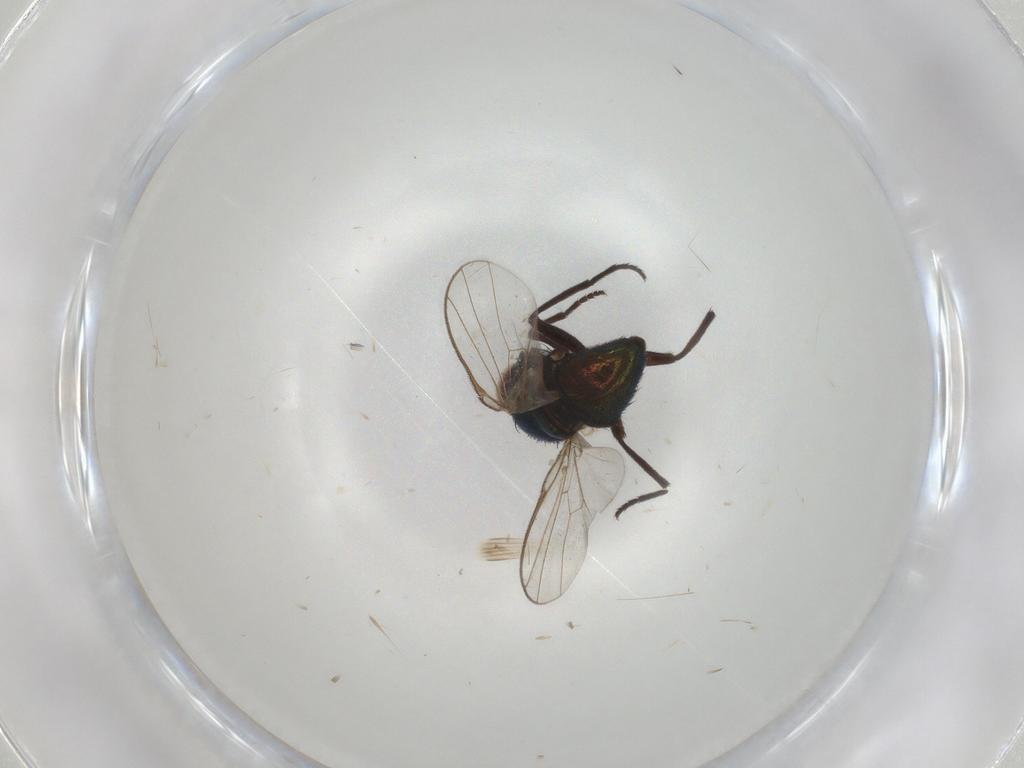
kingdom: Animalia
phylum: Arthropoda
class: Insecta
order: Diptera
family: Agromyzidae
